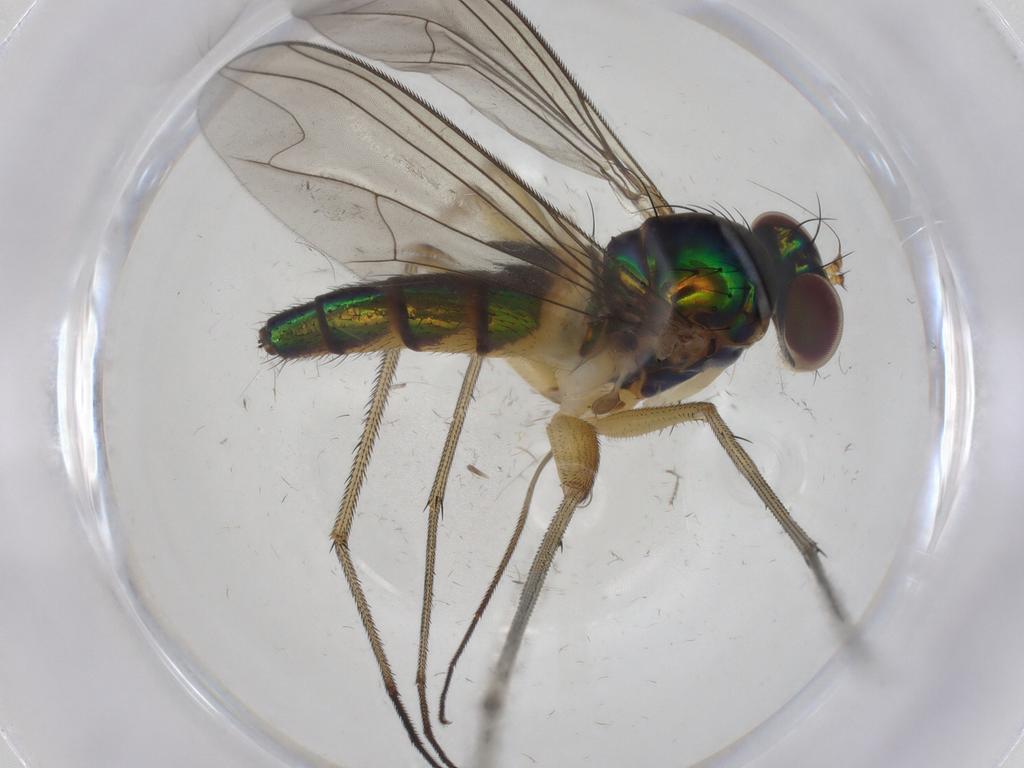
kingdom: Animalia
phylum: Arthropoda
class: Insecta
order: Diptera
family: Dolichopodidae
